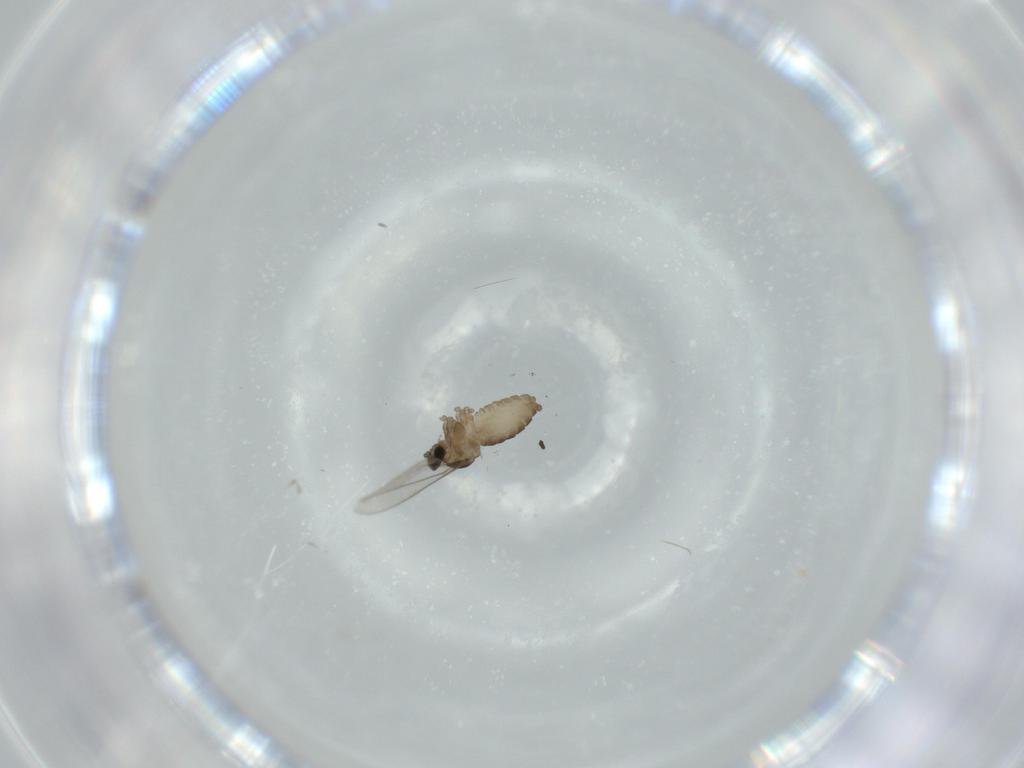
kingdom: Animalia
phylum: Arthropoda
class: Insecta
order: Diptera
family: Cecidomyiidae
